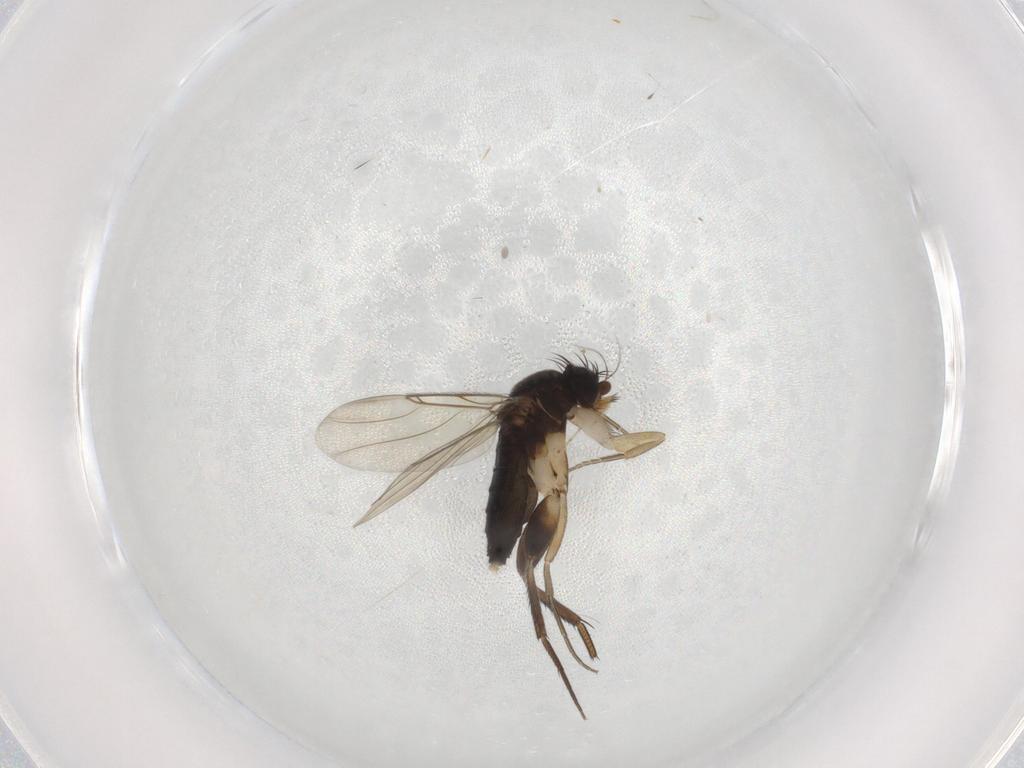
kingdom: Animalia
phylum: Arthropoda
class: Insecta
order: Diptera
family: Phoridae
